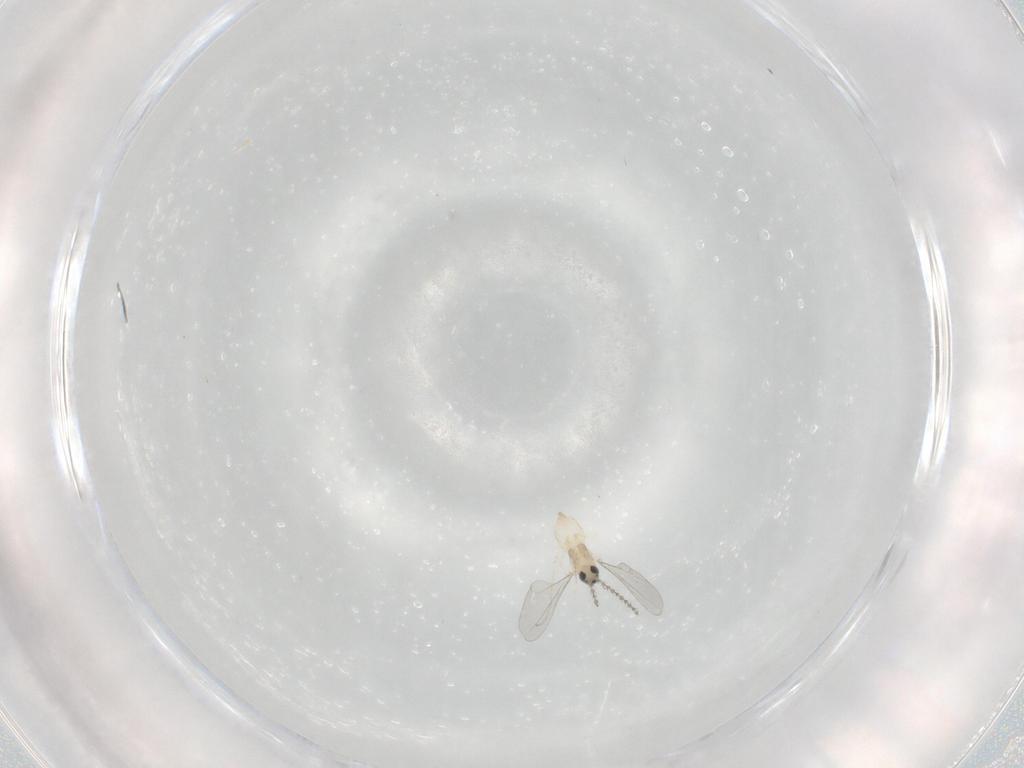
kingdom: Animalia
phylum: Arthropoda
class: Insecta
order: Diptera
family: Cecidomyiidae
